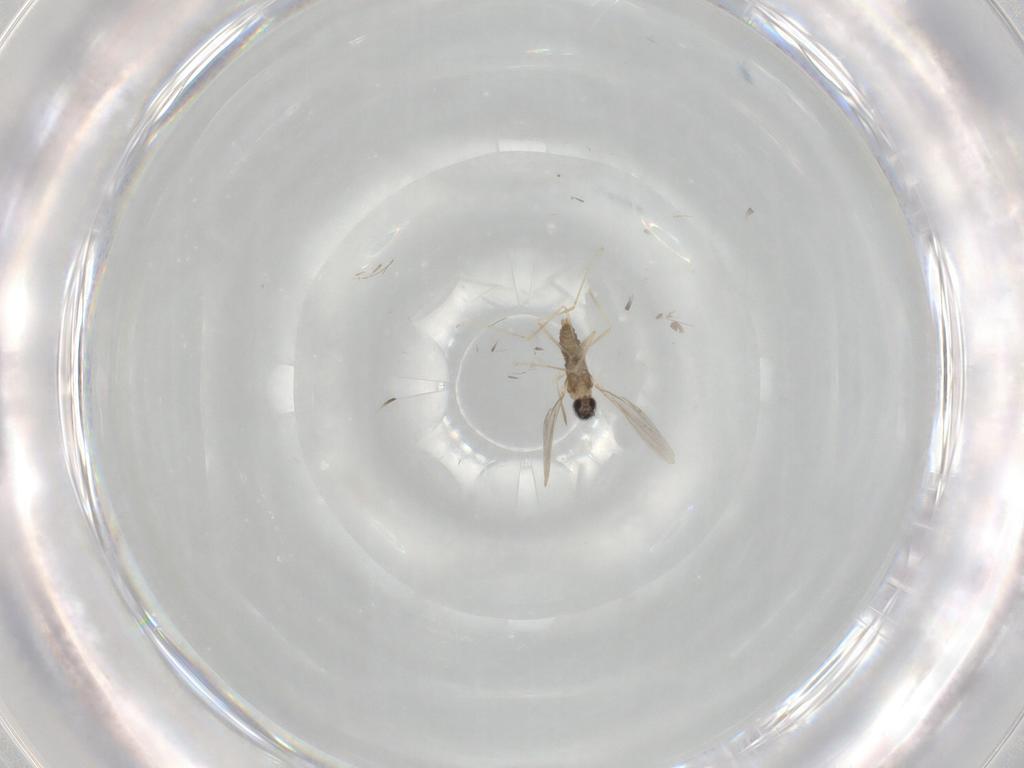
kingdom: Animalia
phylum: Arthropoda
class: Insecta
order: Diptera
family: Cecidomyiidae
